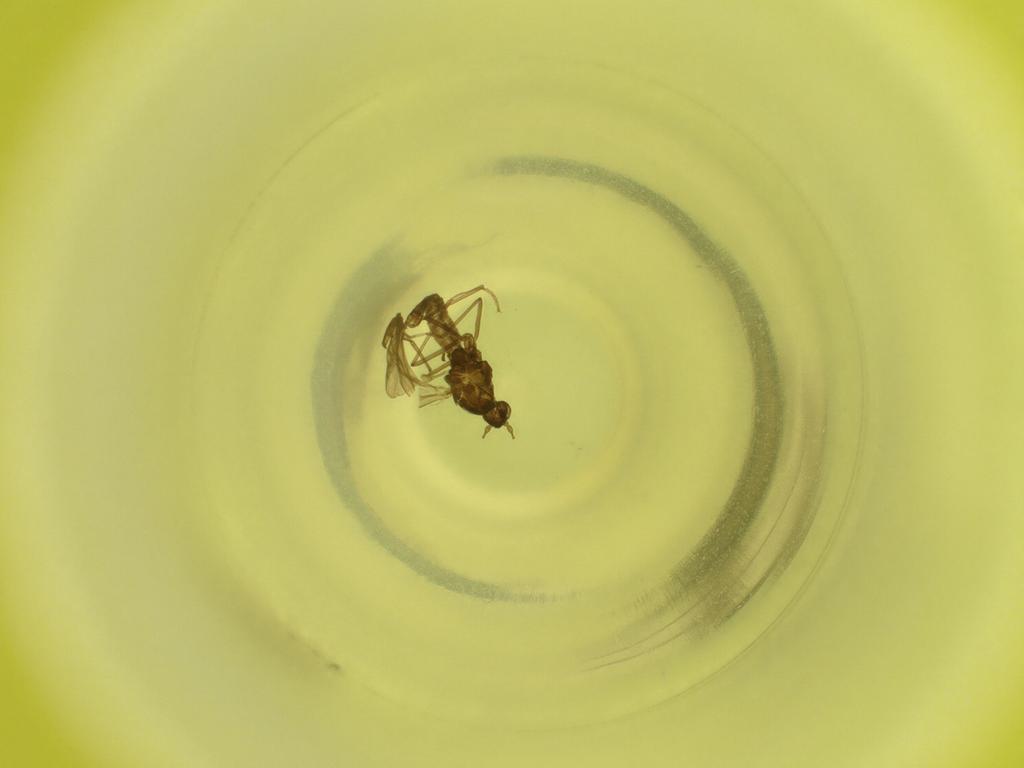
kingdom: Animalia
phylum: Arthropoda
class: Insecta
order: Diptera
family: Cecidomyiidae
